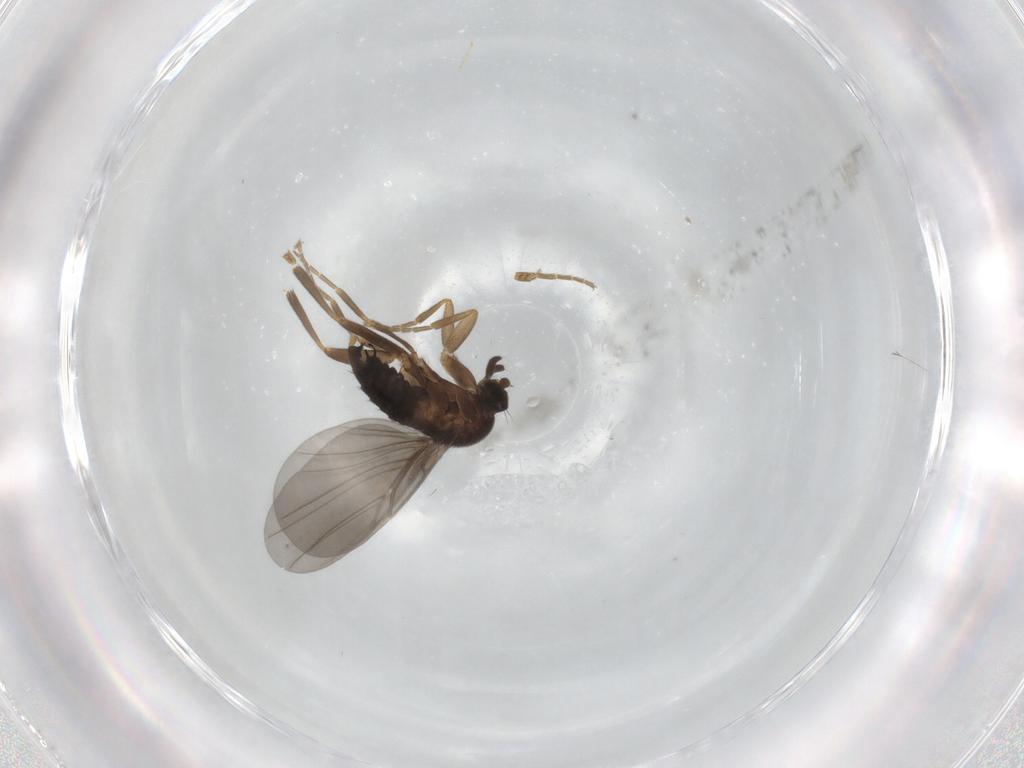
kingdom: Animalia
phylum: Arthropoda
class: Insecta
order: Diptera
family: Phoridae
